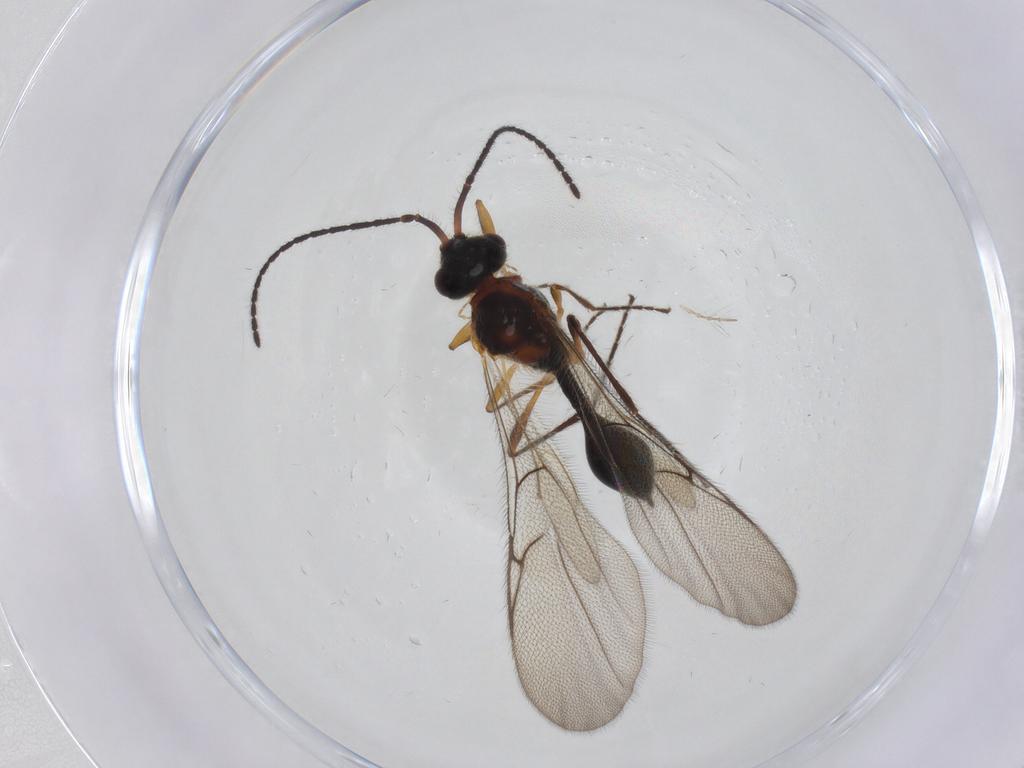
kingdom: Animalia
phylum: Arthropoda
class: Insecta
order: Hymenoptera
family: Diapriidae
